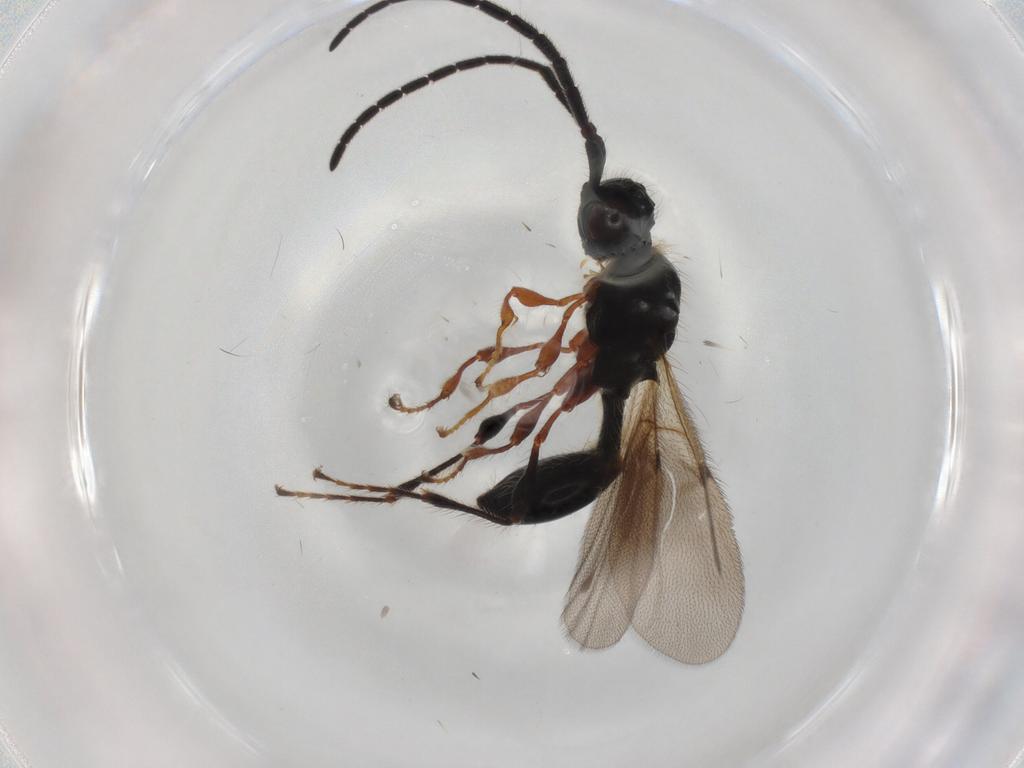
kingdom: Animalia
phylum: Arthropoda
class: Insecta
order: Hymenoptera
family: Diapriidae
